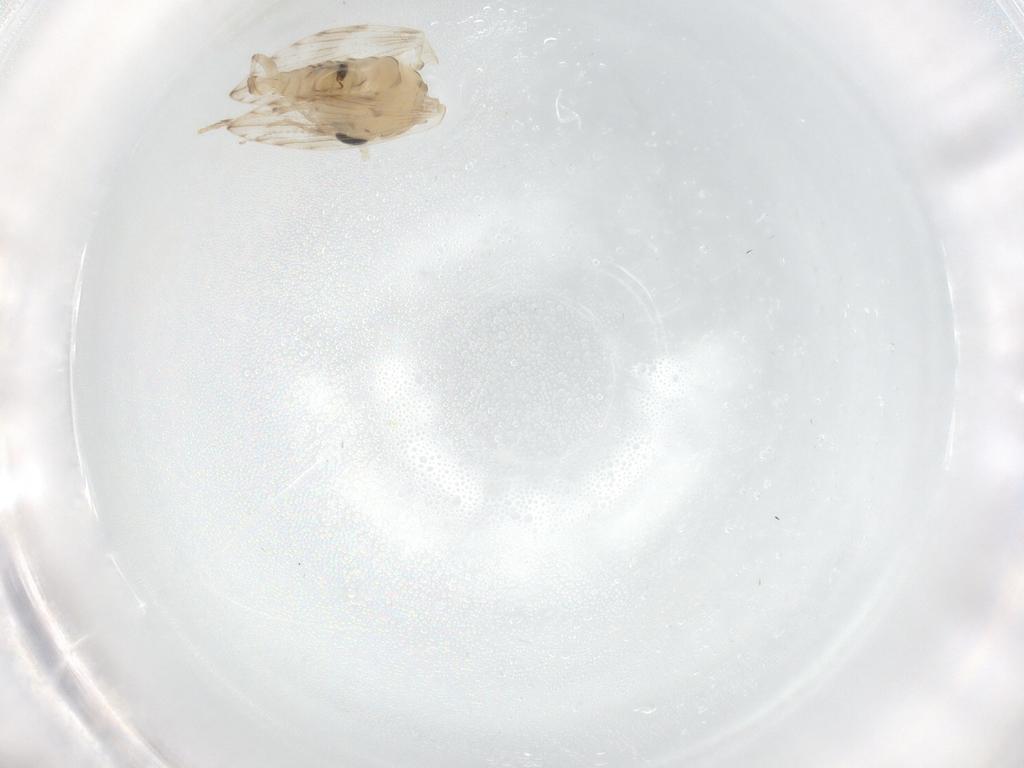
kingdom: Animalia
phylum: Arthropoda
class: Insecta
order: Diptera
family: Psychodidae
